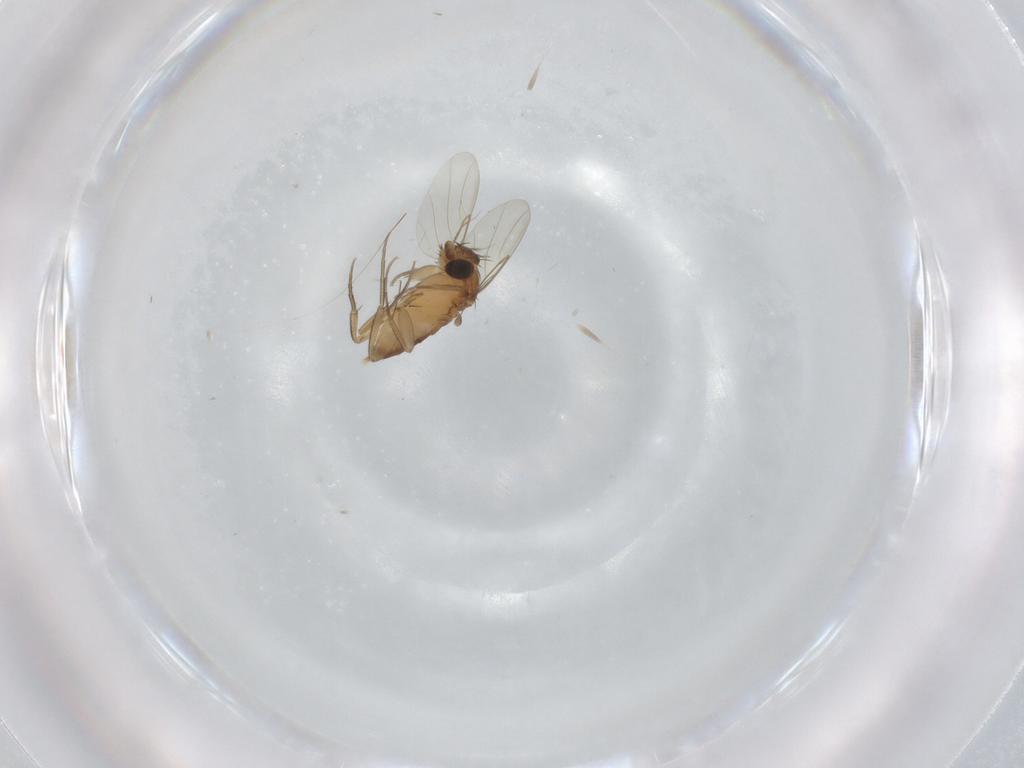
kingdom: Animalia
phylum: Arthropoda
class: Insecta
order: Diptera
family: Phoridae
